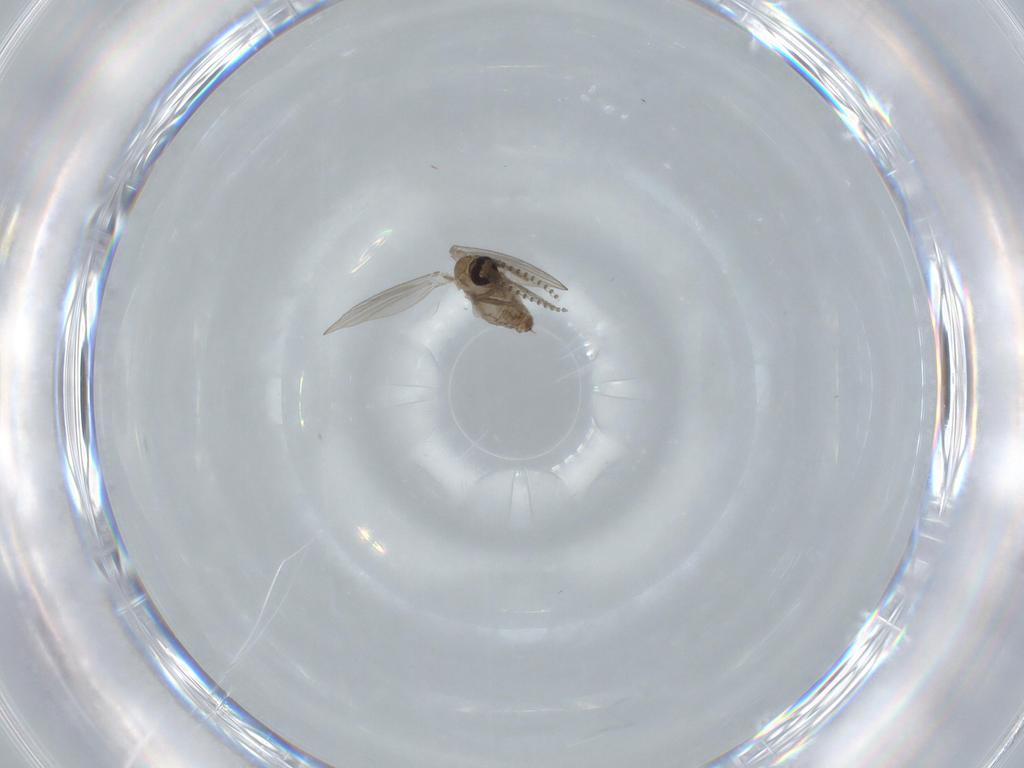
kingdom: Animalia
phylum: Arthropoda
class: Insecta
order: Diptera
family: Psychodidae
